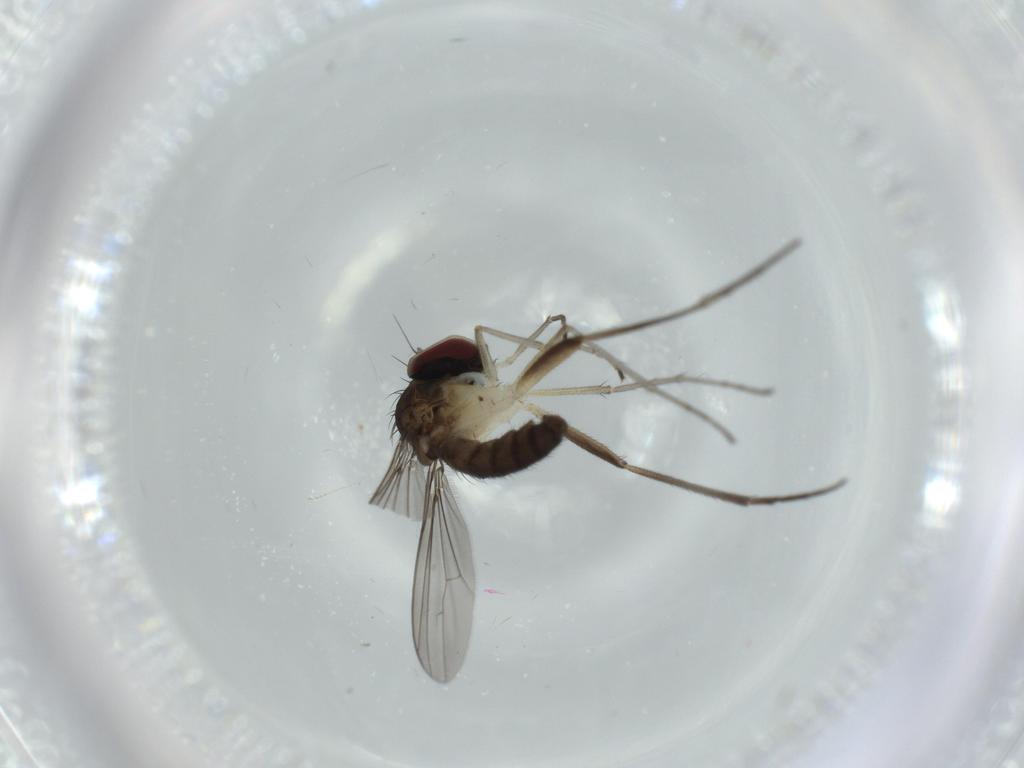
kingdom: Animalia
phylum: Arthropoda
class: Insecta
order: Diptera
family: Dolichopodidae
